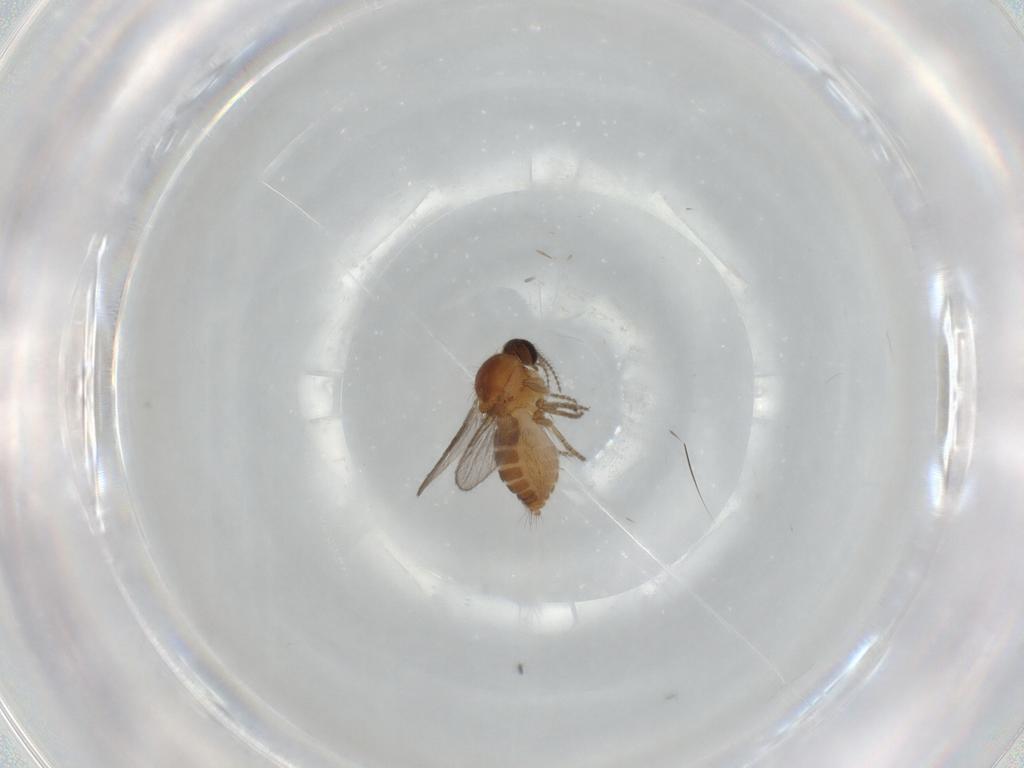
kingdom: Animalia
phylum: Arthropoda
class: Insecta
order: Diptera
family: Ceratopogonidae
